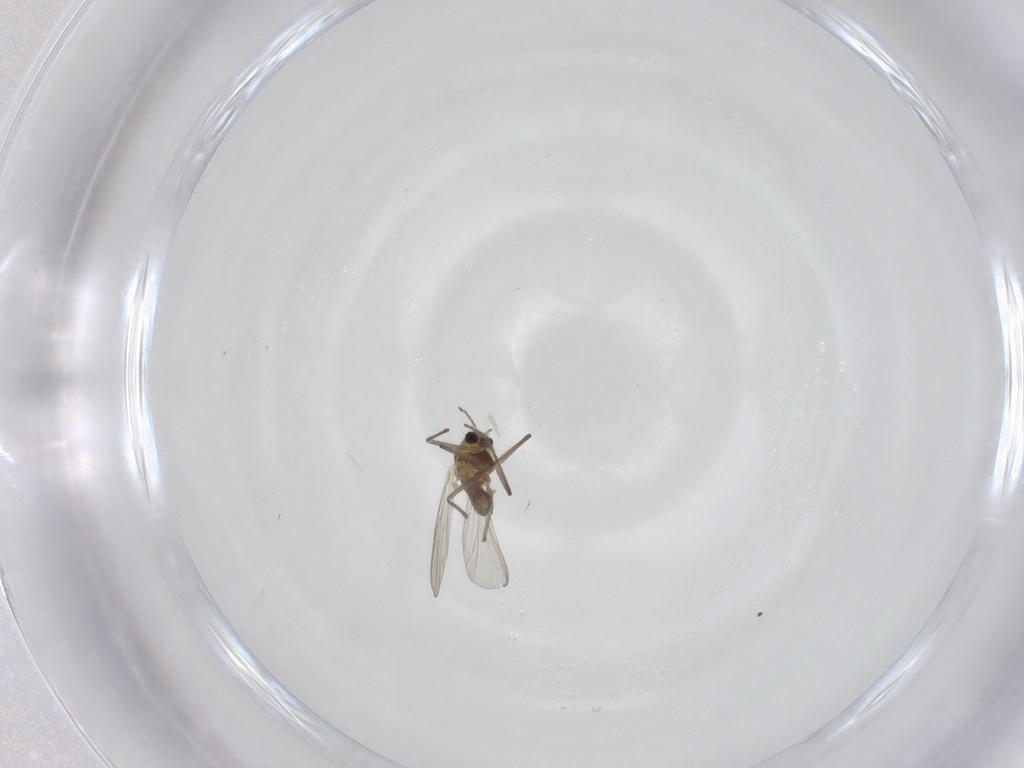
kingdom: Animalia
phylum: Arthropoda
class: Insecta
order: Diptera
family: Chironomidae
